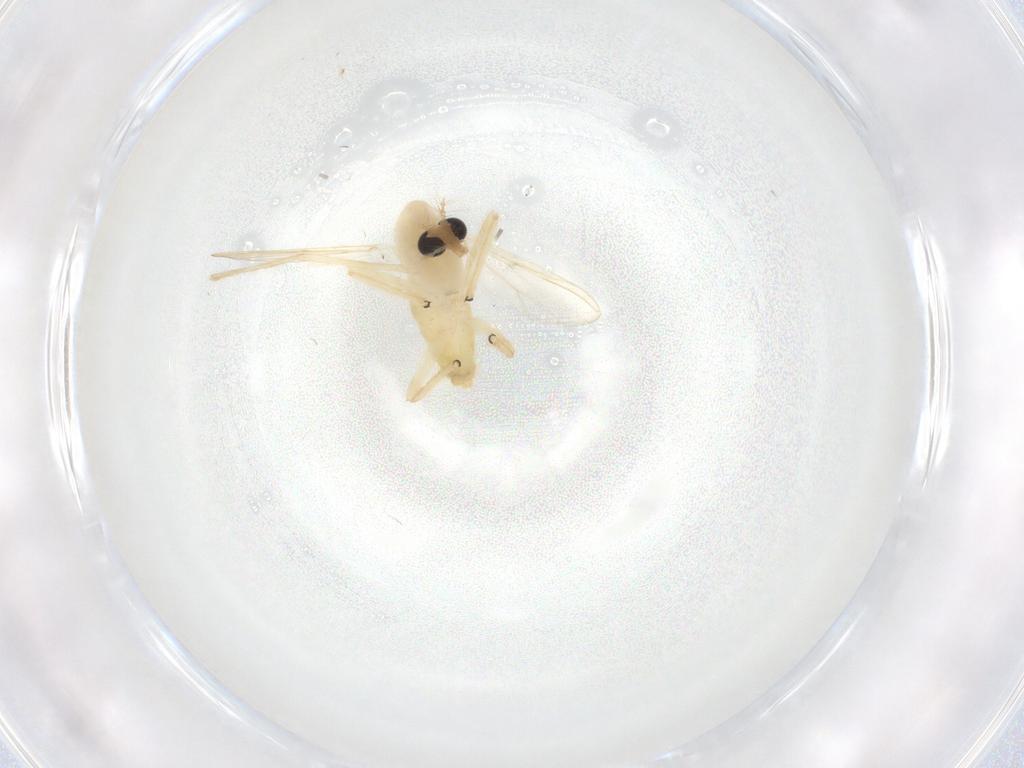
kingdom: Animalia
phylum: Arthropoda
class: Insecta
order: Diptera
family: Chironomidae
